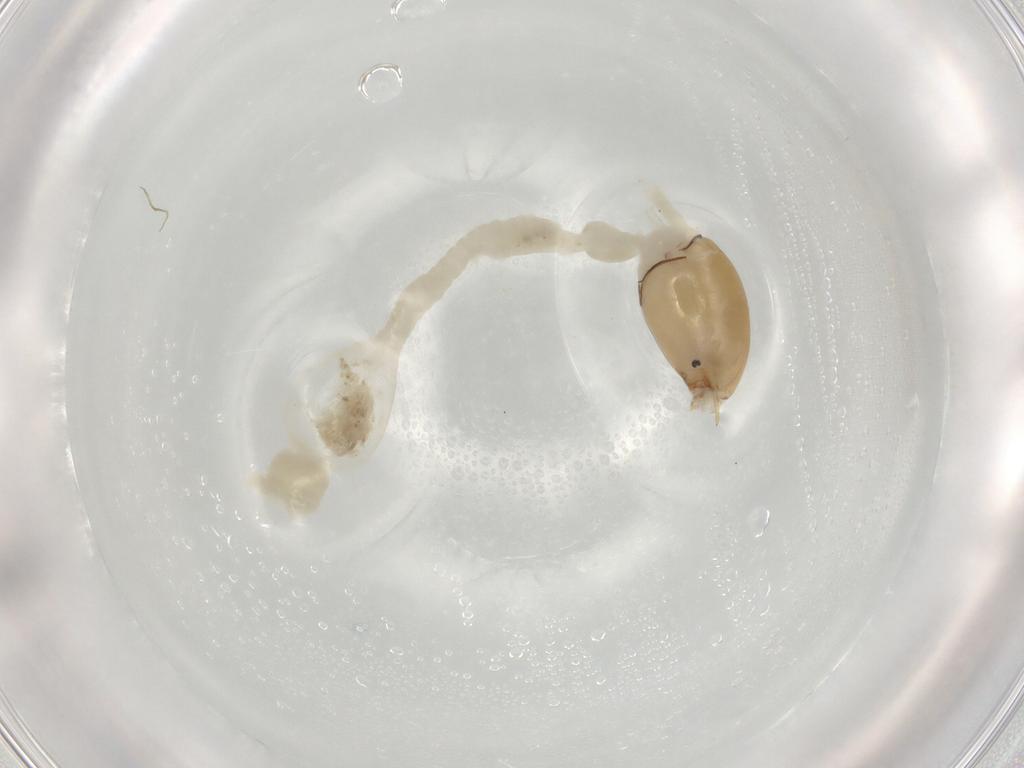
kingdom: Animalia
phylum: Arthropoda
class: Insecta
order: Diptera
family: Chironomidae
